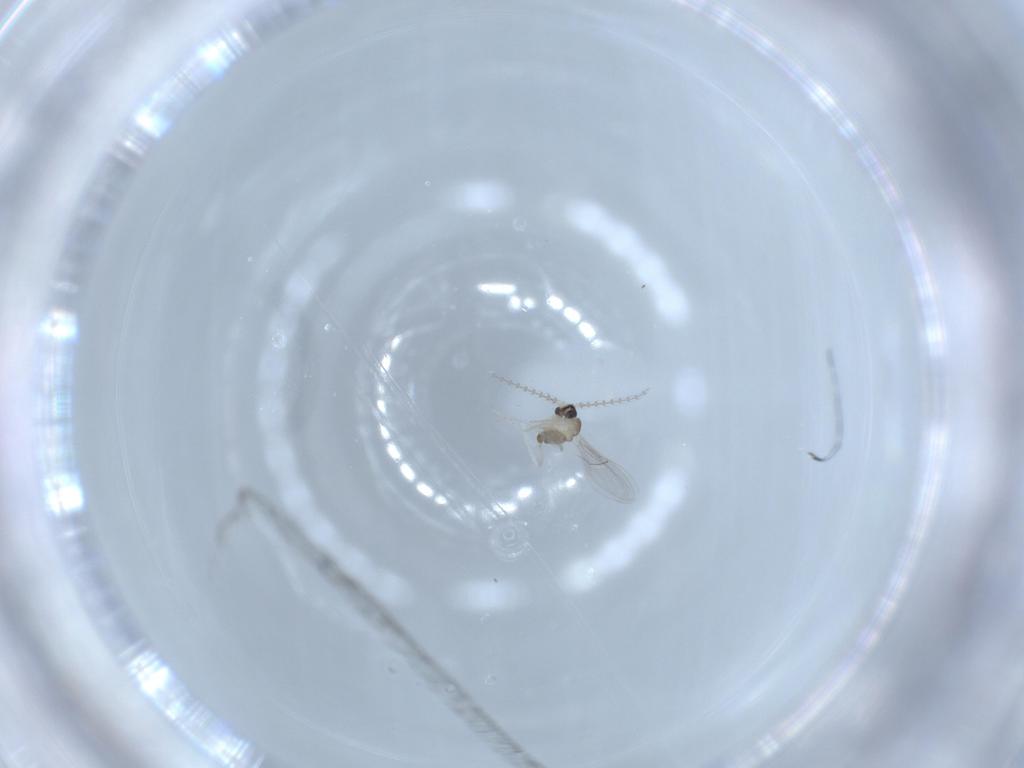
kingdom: Animalia
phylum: Arthropoda
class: Insecta
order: Diptera
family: Cecidomyiidae
